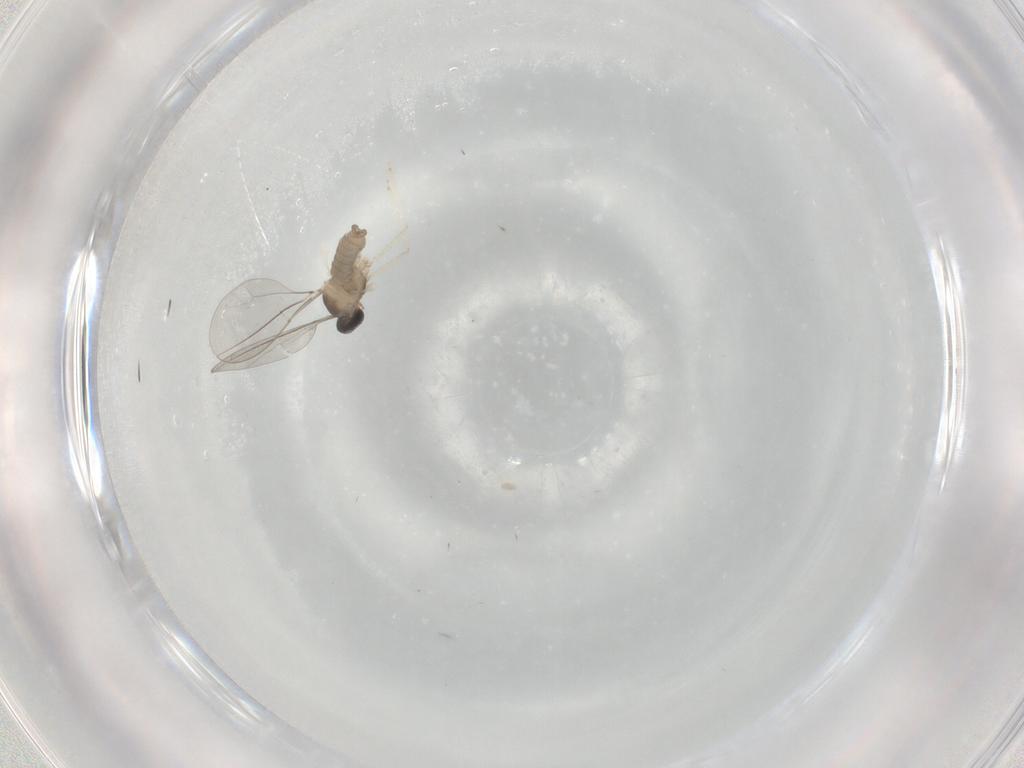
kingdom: Animalia
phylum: Arthropoda
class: Insecta
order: Diptera
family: Cecidomyiidae
